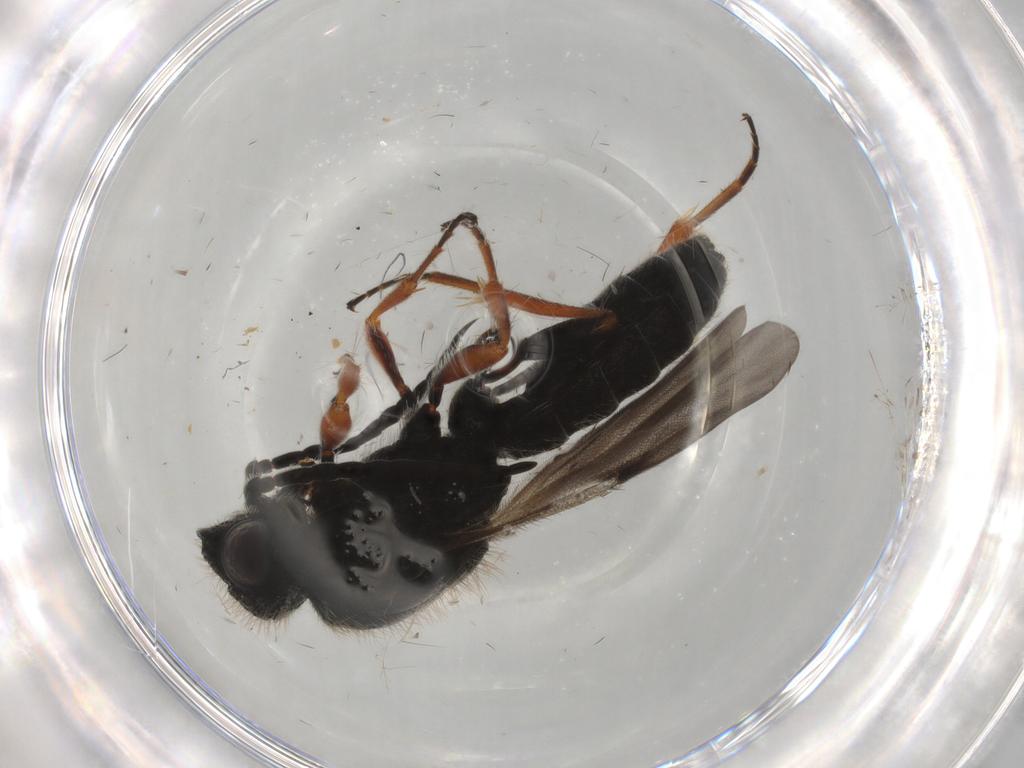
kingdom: Animalia
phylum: Arthropoda
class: Insecta
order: Hymenoptera
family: Scelionidae
